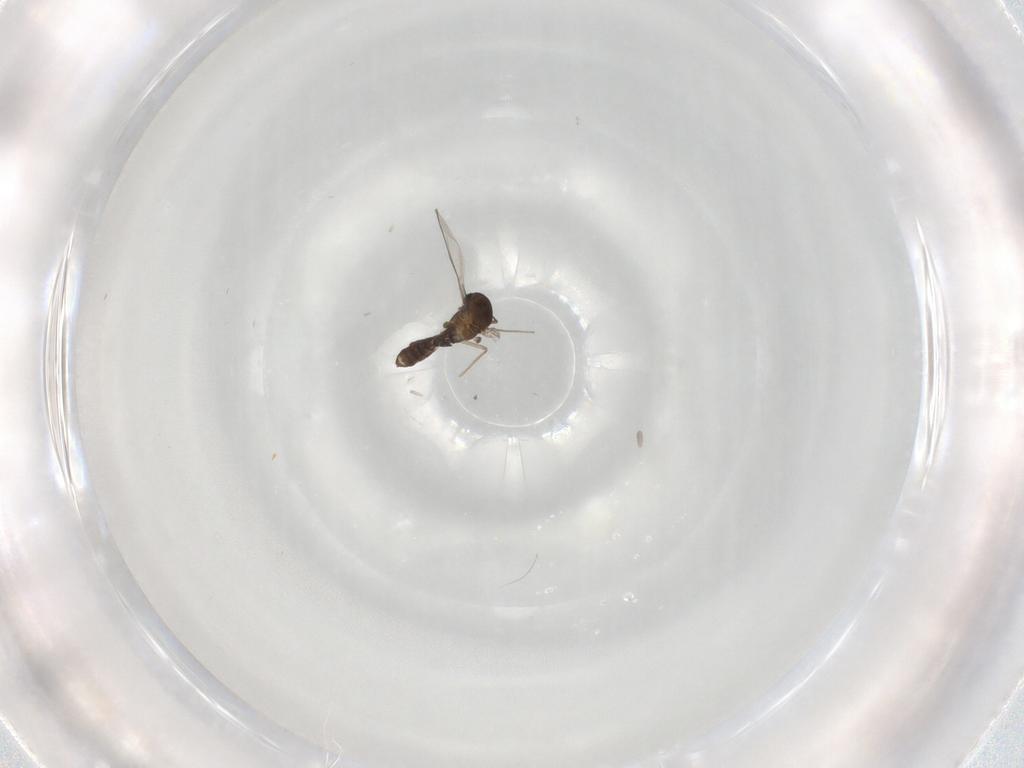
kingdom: Animalia
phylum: Arthropoda
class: Insecta
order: Diptera
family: Chironomidae
